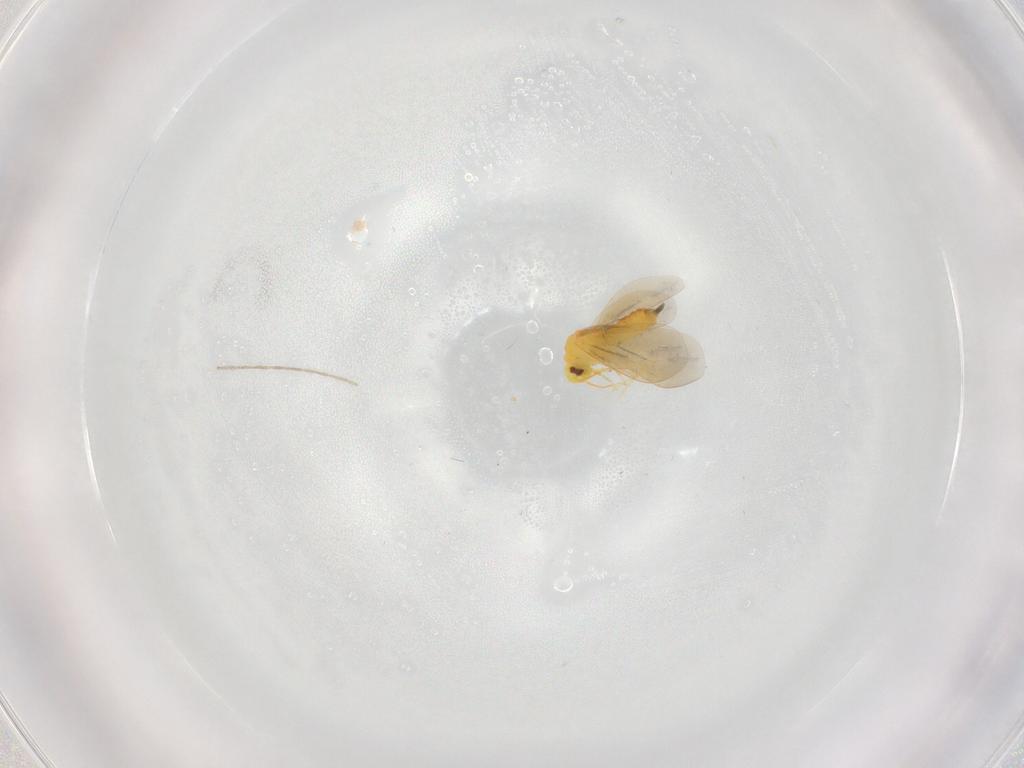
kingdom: Animalia
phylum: Arthropoda
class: Insecta
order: Hemiptera
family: Aleyrodidae
